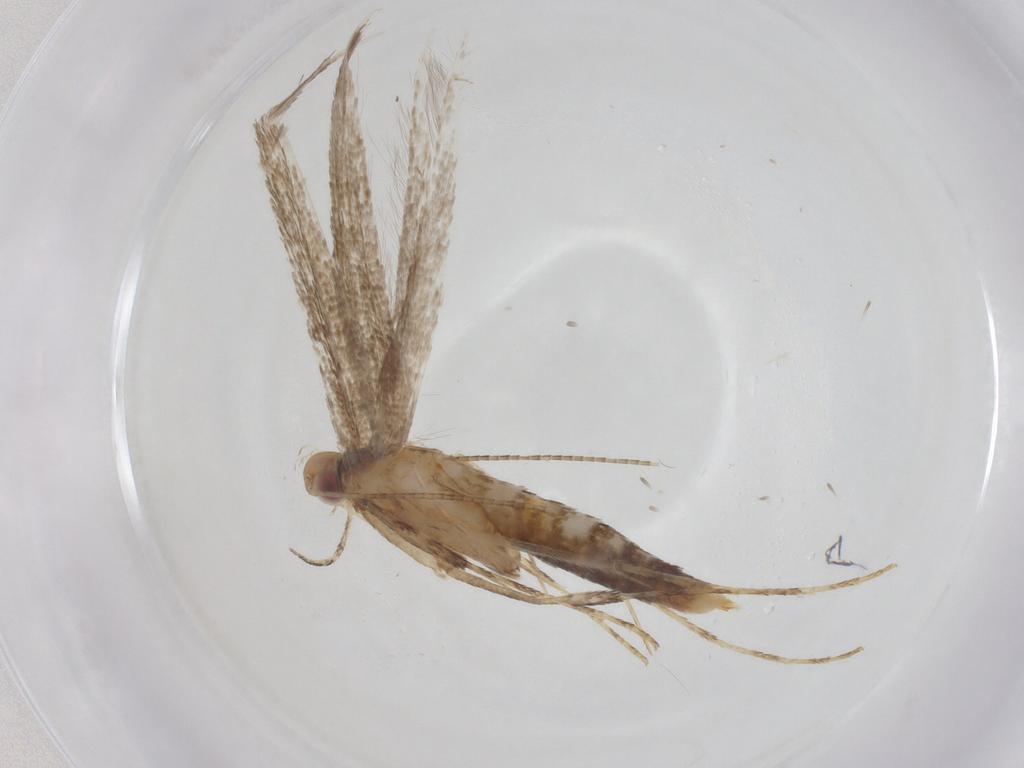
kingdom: Animalia
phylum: Arthropoda
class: Insecta
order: Lepidoptera
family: Gracillariidae
